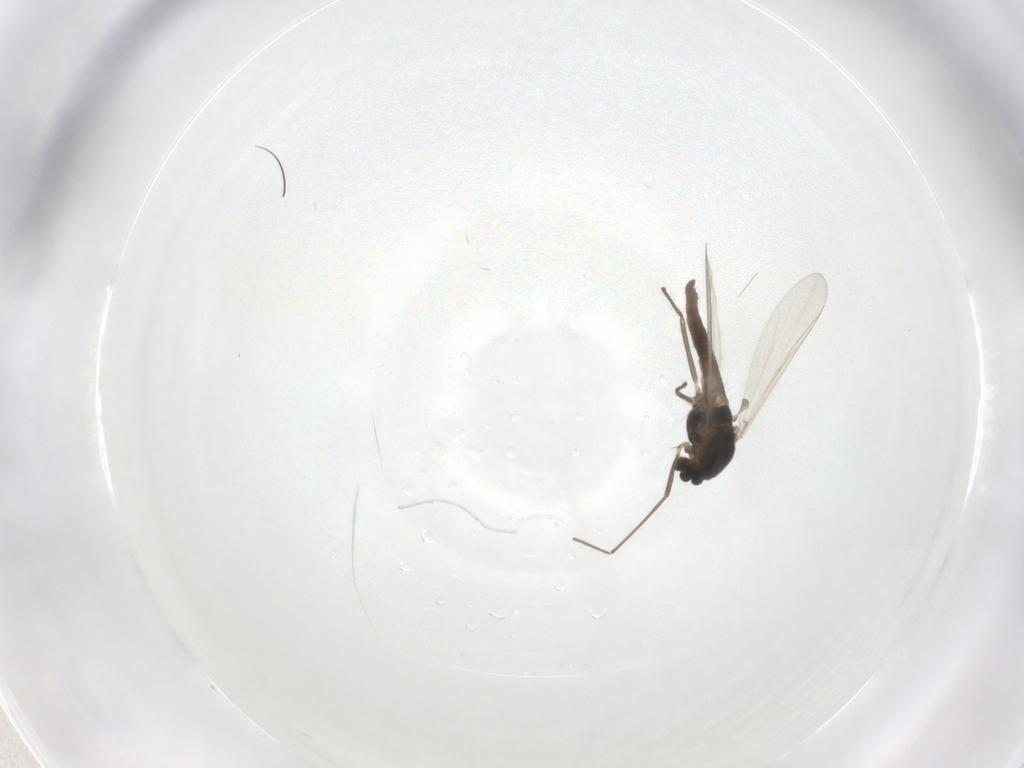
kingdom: Animalia
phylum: Arthropoda
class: Insecta
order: Diptera
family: Chironomidae
